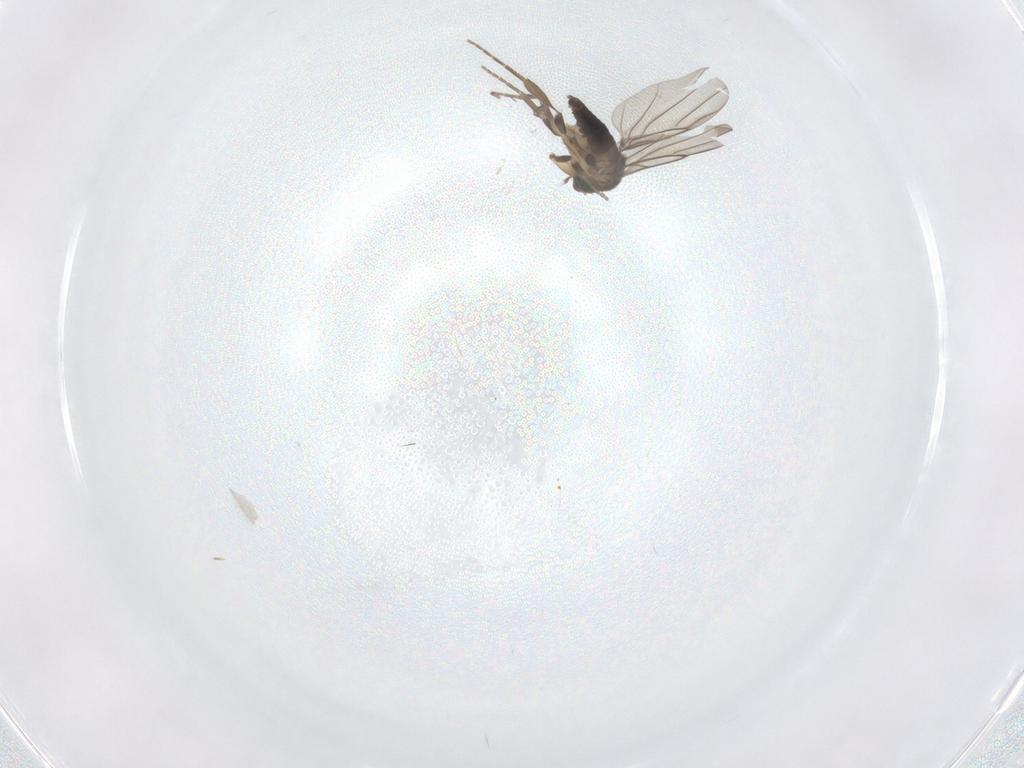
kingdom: Animalia
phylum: Arthropoda
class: Insecta
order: Diptera
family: Phoridae
